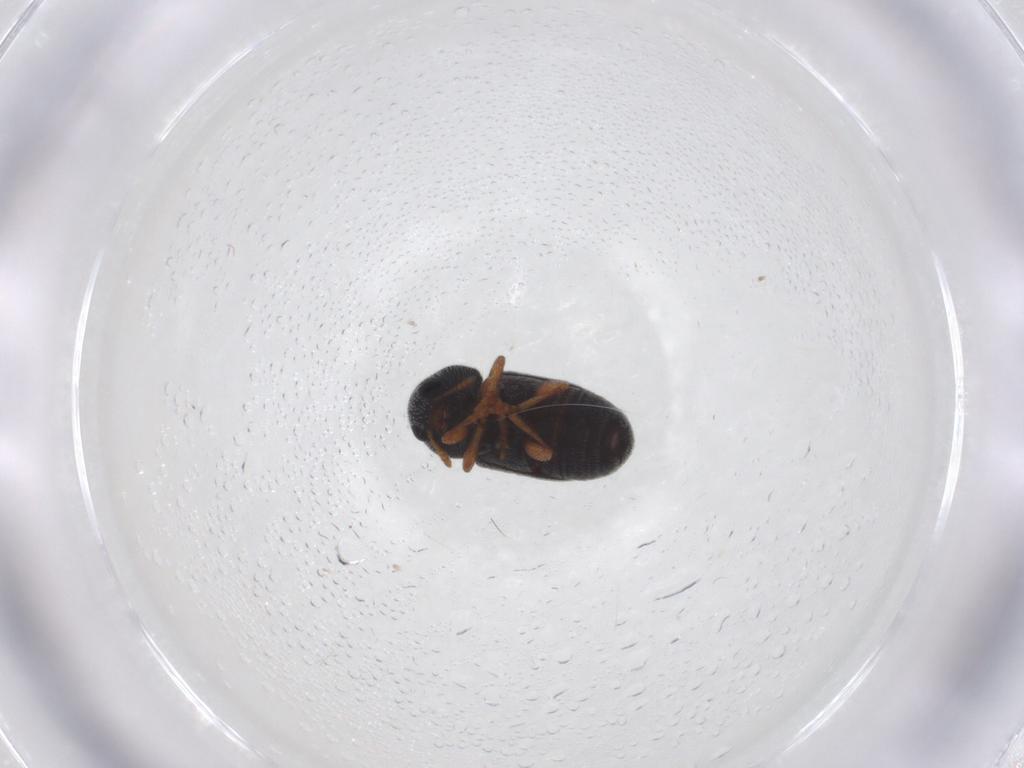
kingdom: Animalia
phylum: Arthropoda
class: Insecta
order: Coleoptera
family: Anthribidae
